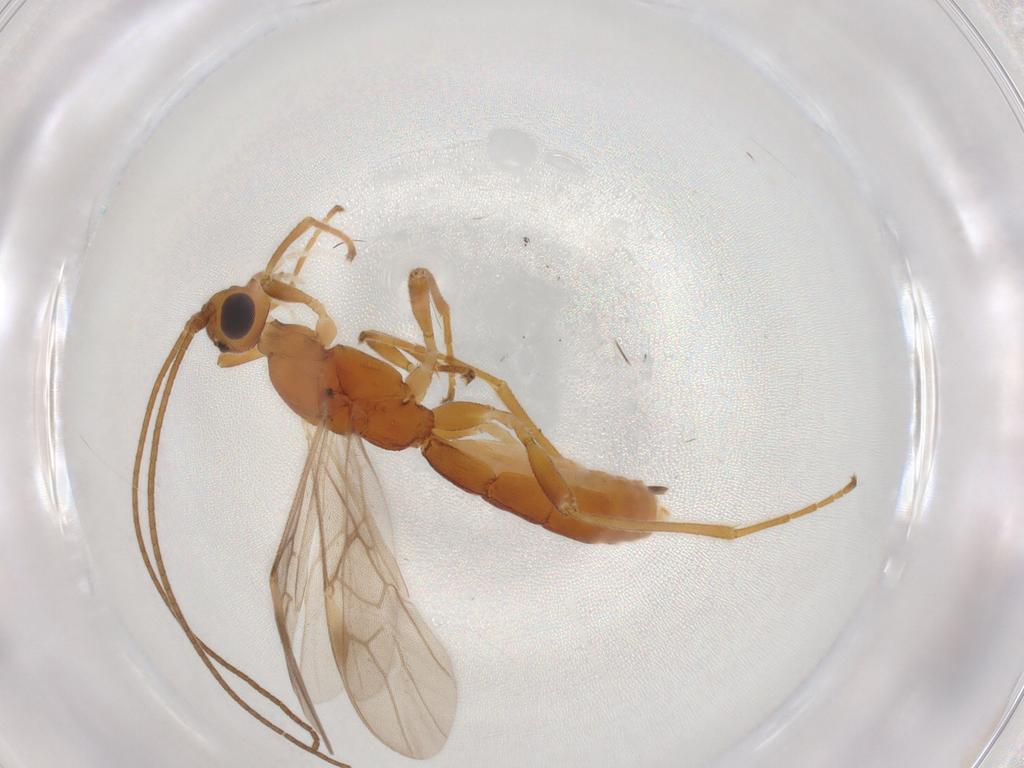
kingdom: Animalia
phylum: Arthropoda
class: Insecta
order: Hymenoptera
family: Braconidae
